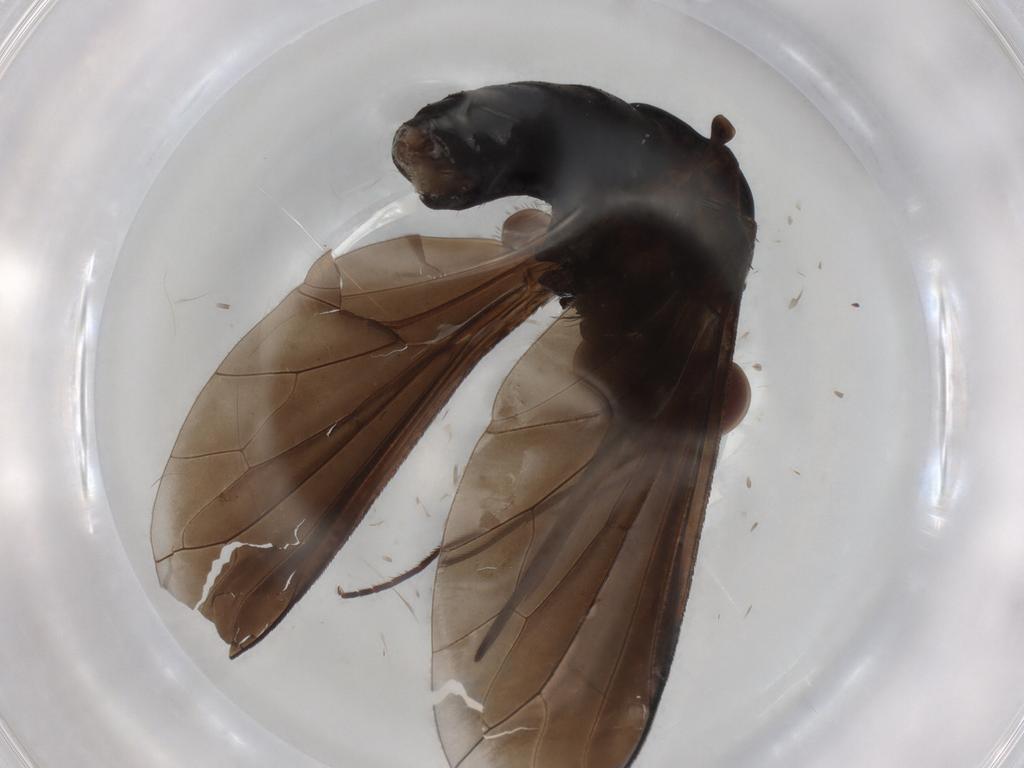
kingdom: Animalia
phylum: Arthropoda
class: Insecta
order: Diptera
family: Bombyliidae
